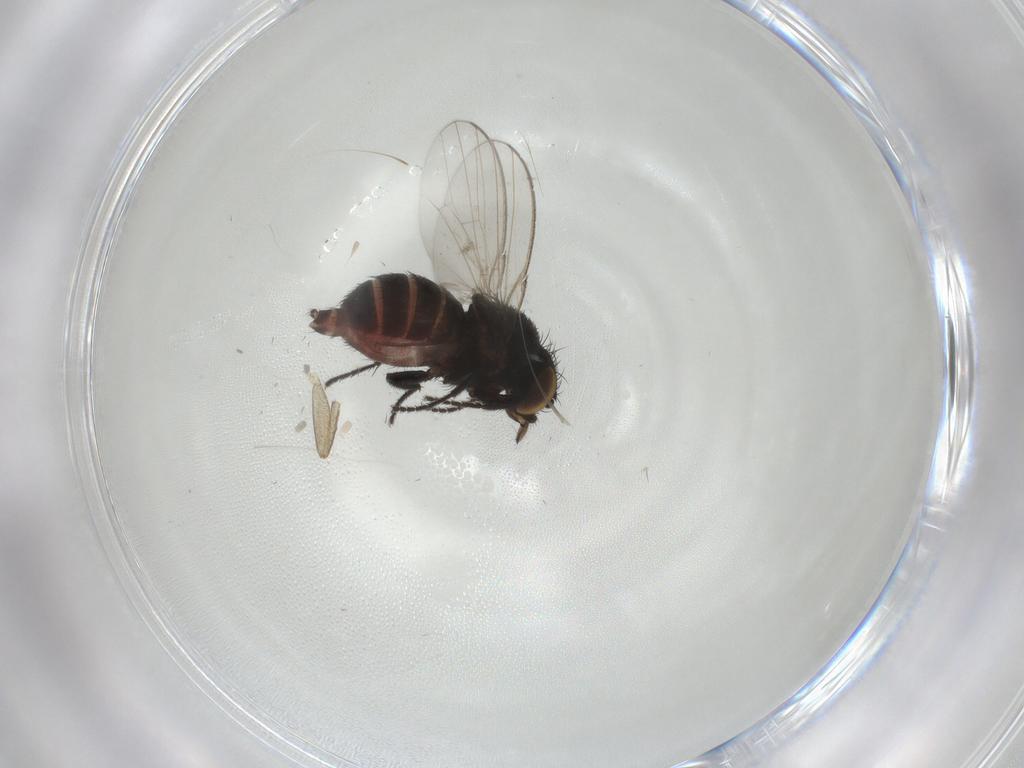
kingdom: Animalia
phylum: Arthropoda
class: Insecta
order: Diptera
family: Milichiidae
